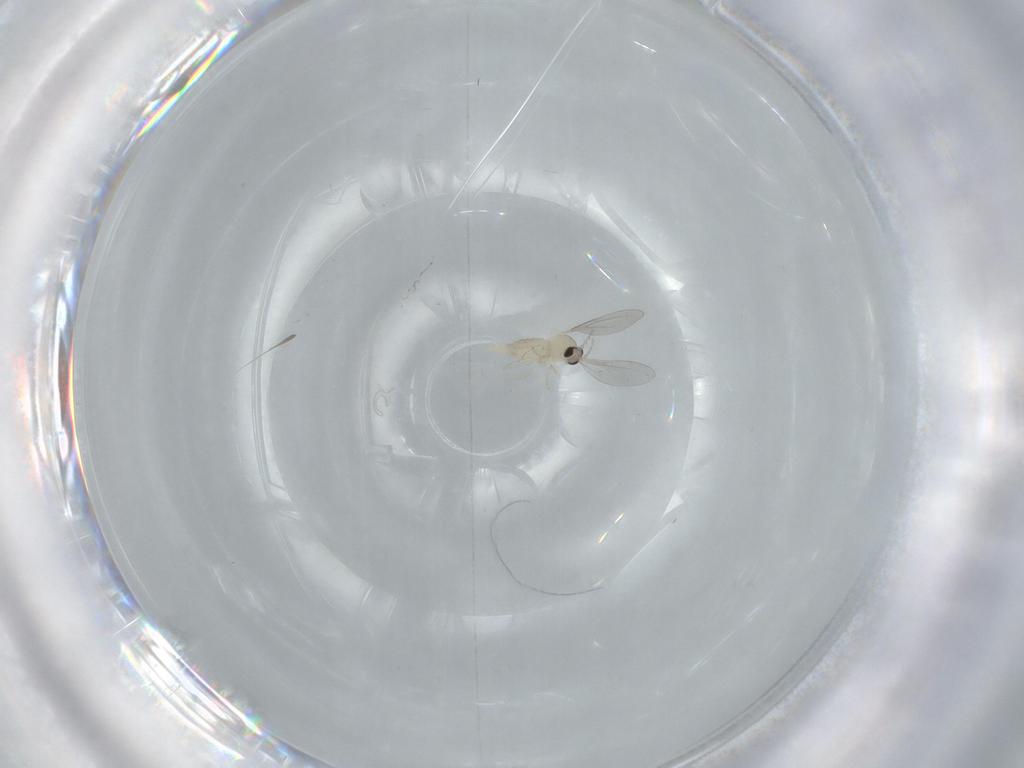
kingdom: Animalia
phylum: Arthropoda
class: Insecta
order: Diptera
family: Cecidomyiidae
